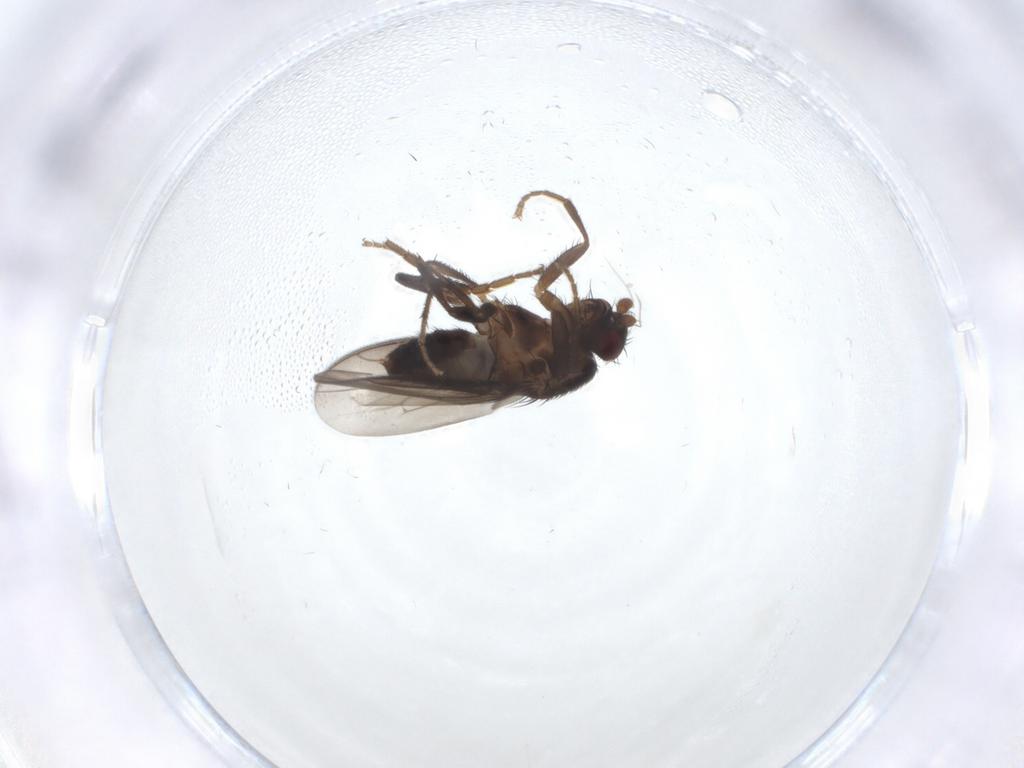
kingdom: Animalia
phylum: Arthropoda
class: Insecta
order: Diptera
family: Sphaeroceridae
